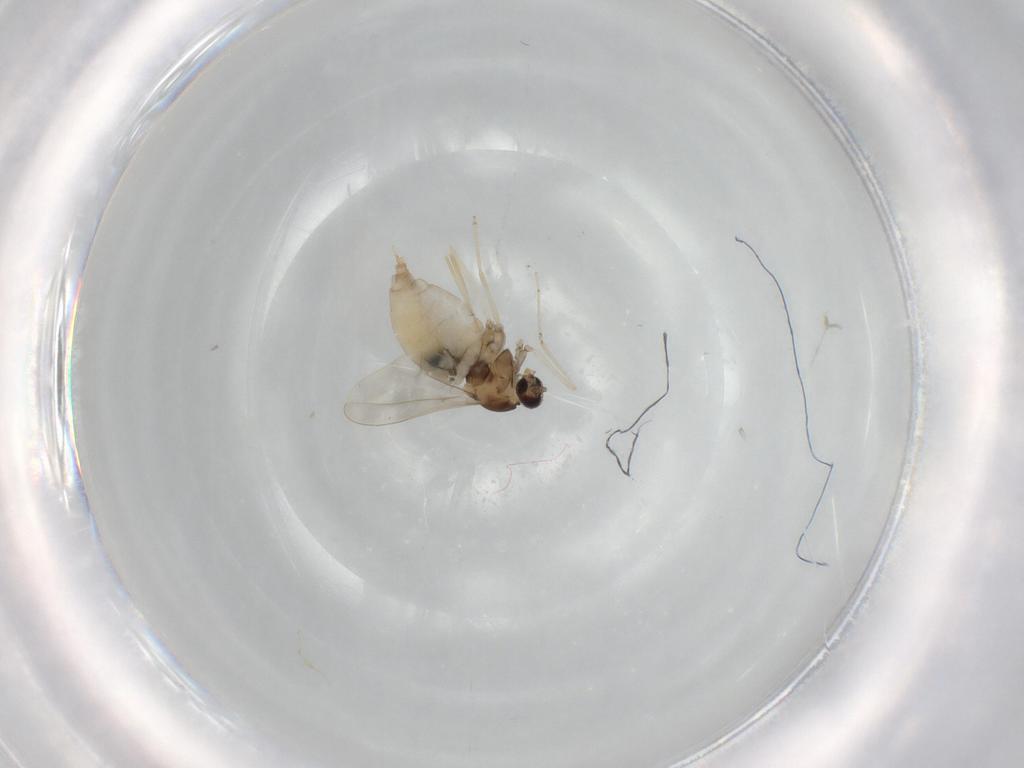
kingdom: Animalia
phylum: Arthropoda
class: Insecta
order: Diptera
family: Cecidomyiidae
